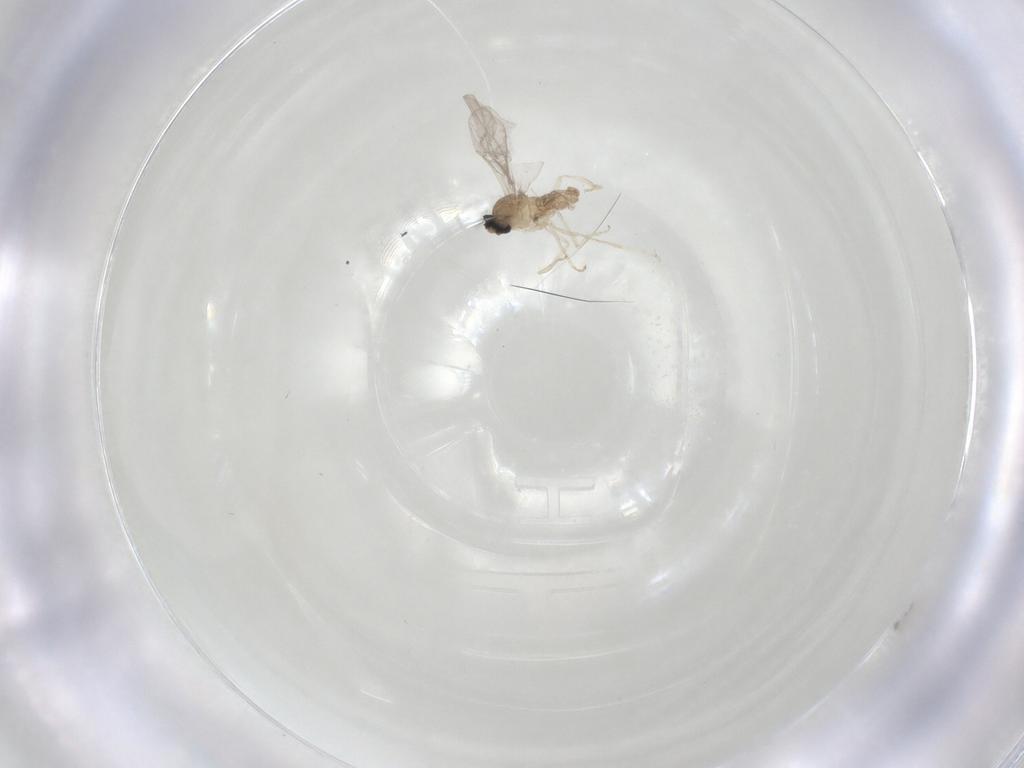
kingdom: Animalia
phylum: Arthropoda
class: Insecta
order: Diptera
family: Cecidomyiidae
